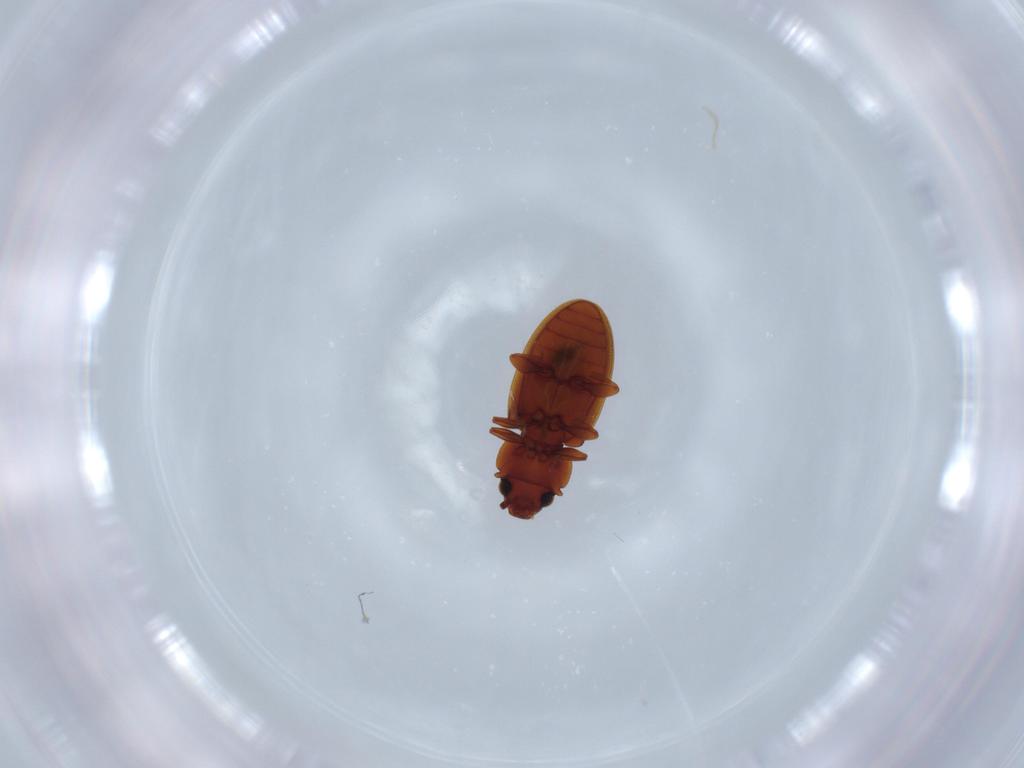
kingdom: Animalia
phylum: Arthropoda
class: Insecta
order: Coleoptera
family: Silvanidae
